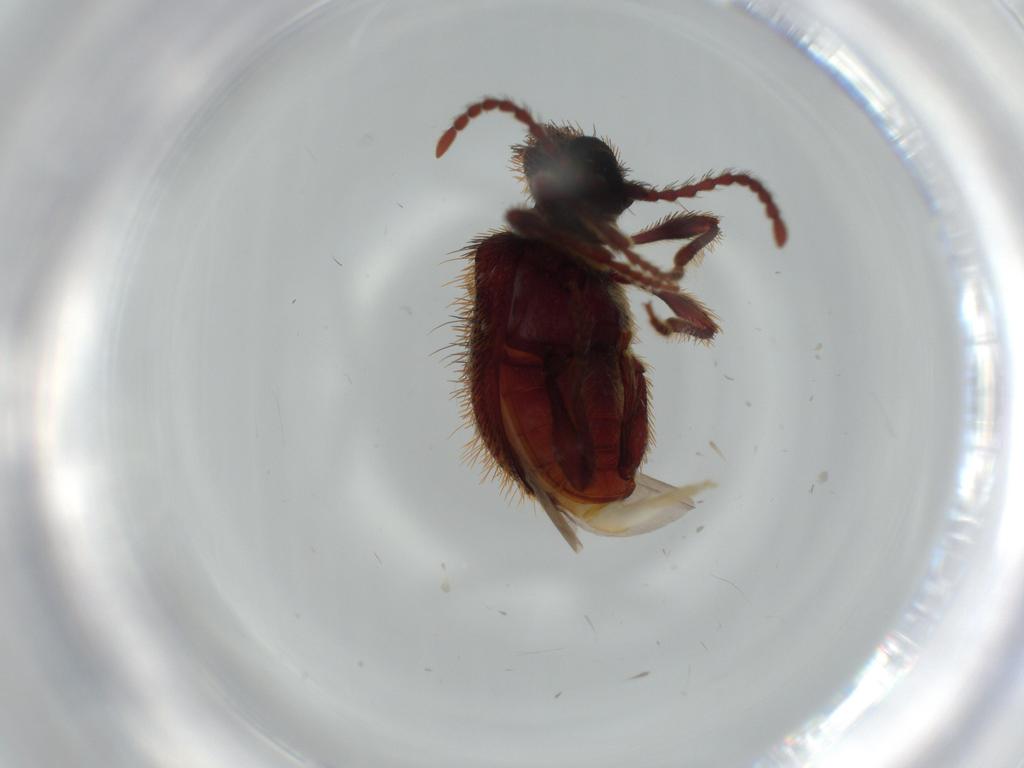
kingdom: Animalia
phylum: Arthropoda
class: Insecta
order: Coleoptera
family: Ptinidae
